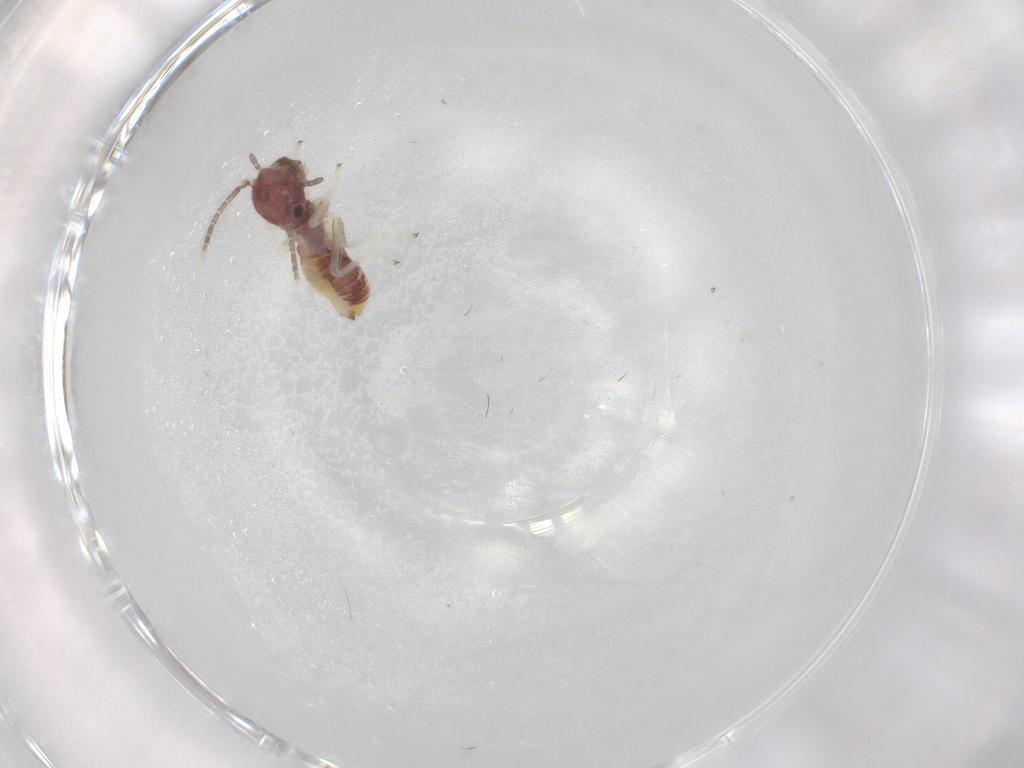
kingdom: Animalia
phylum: Arthropoda
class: Insecta
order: Psocodea
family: Caeciliusidae
